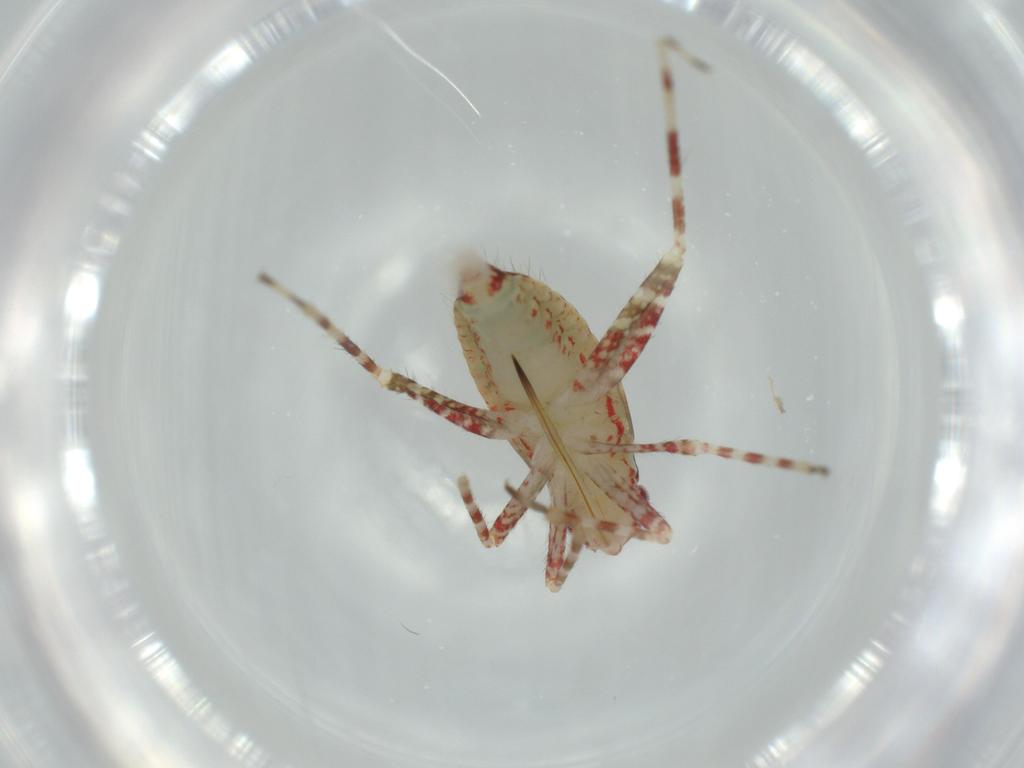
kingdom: Animalia
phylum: Arthropoda
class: Insecta
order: Hemiptera
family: Miridae
